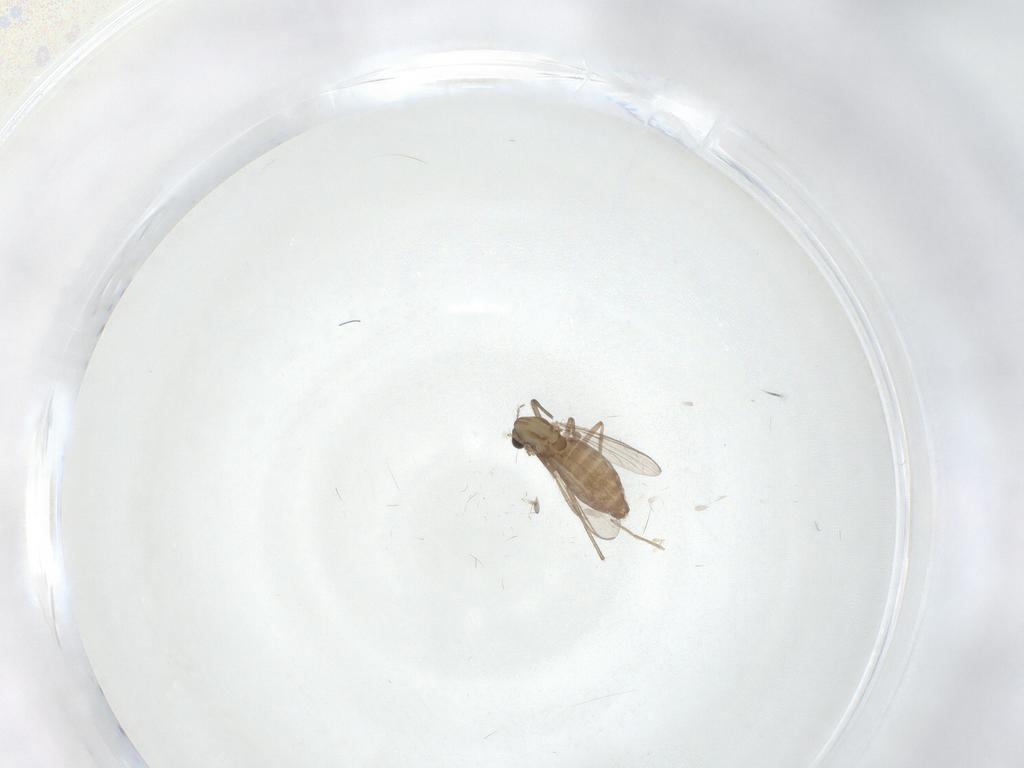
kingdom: Animalia
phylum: Arthropoda
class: Insecta
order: Diptera
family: Chironomidae
